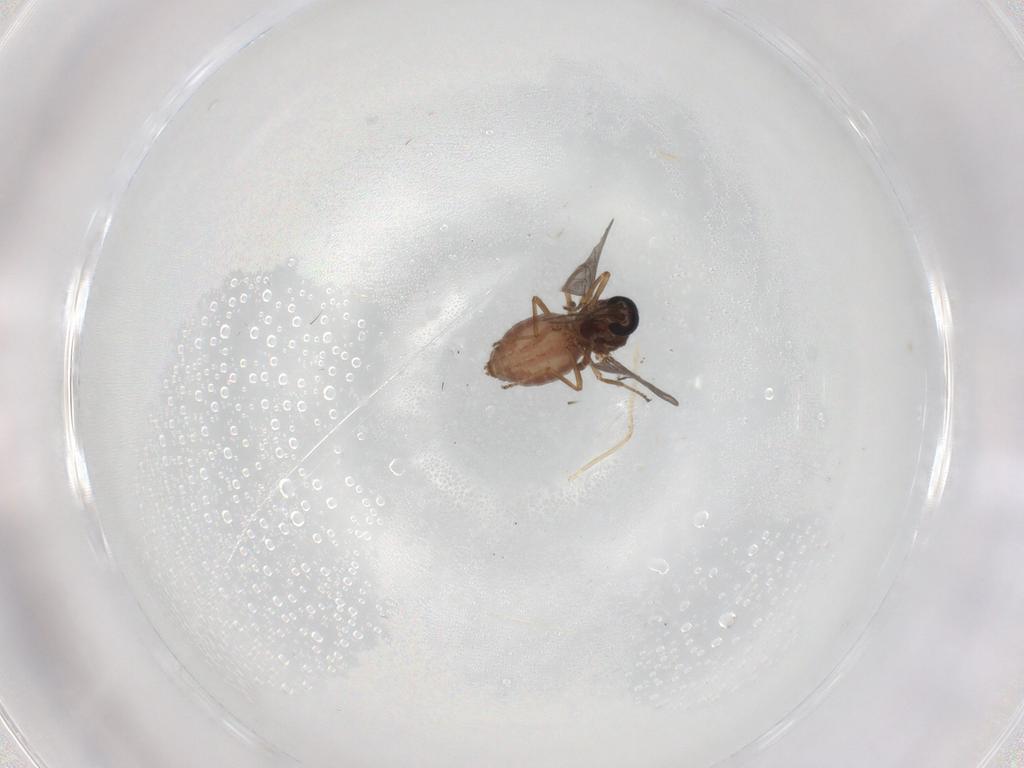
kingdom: Animalia
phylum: Arthropoda
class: Insecta
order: Diptera
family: Ceratopogonidae
